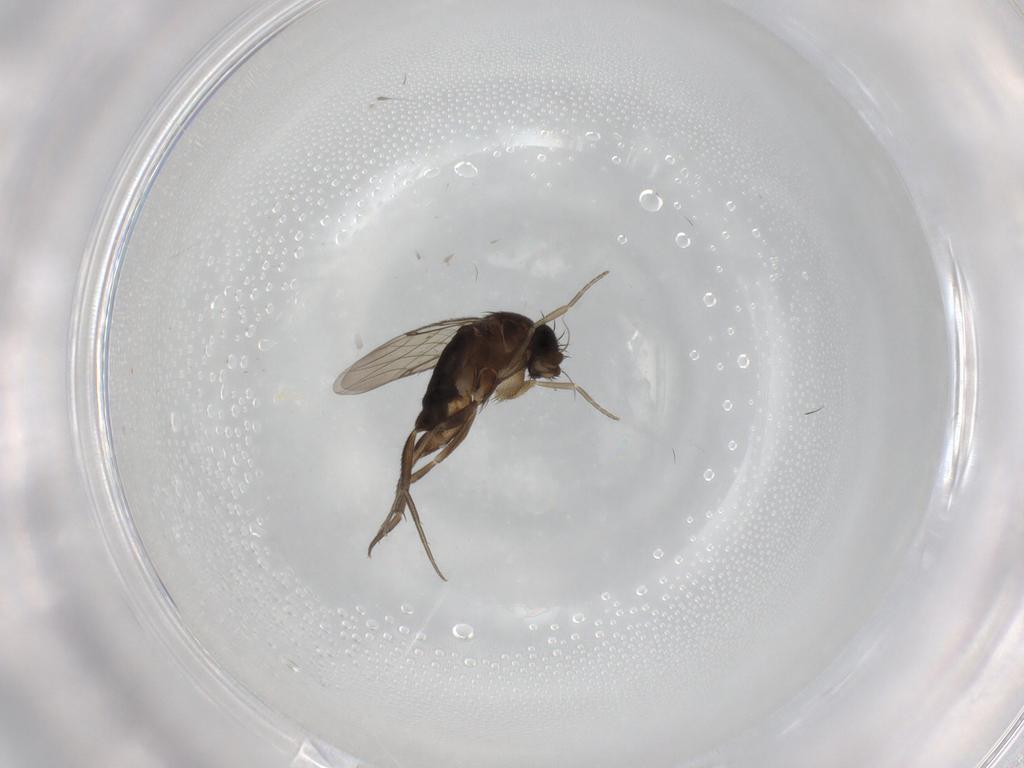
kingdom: Animalia
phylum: Arthropoda
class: Insecta
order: Diptera
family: Phoridae
